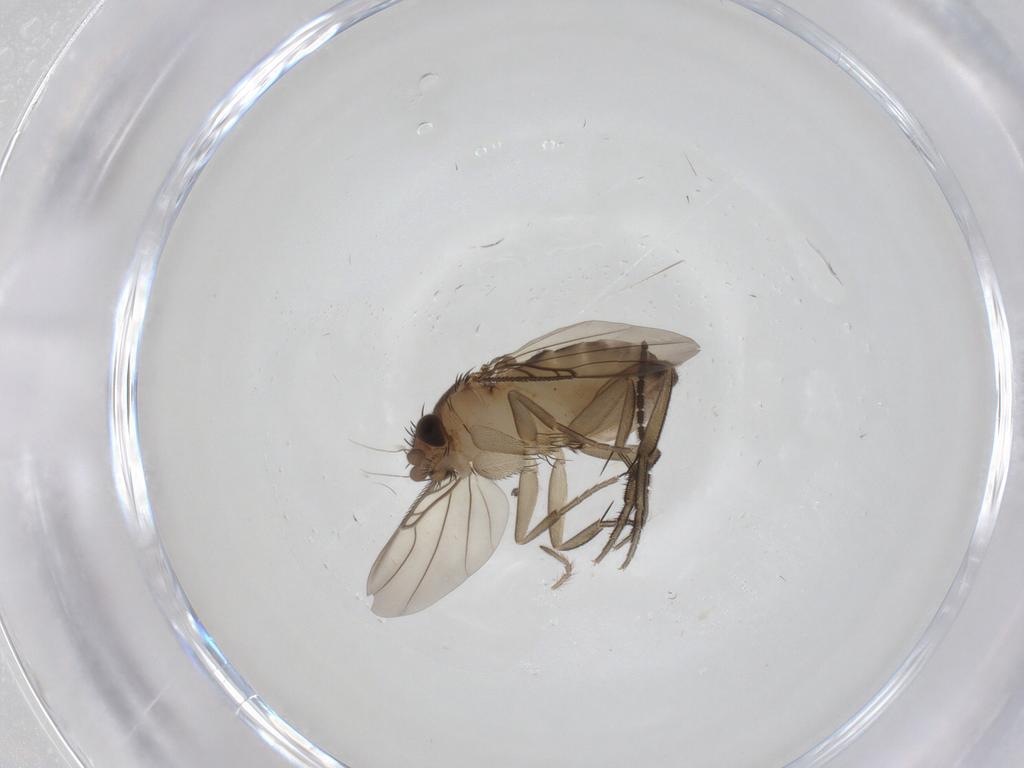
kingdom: Animalia
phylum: Arthropoda
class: Insecta
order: Diptera
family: Phoridae
